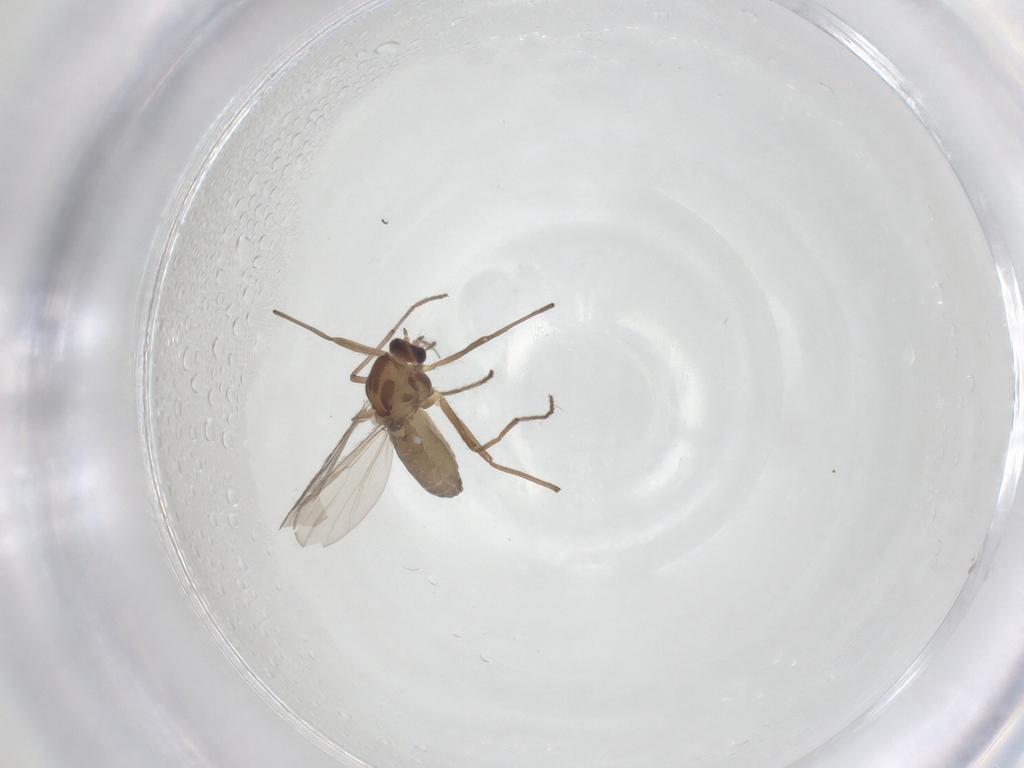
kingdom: Animalia
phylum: Arthropoda
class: Insecta
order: Diptera
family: Chironomidae
